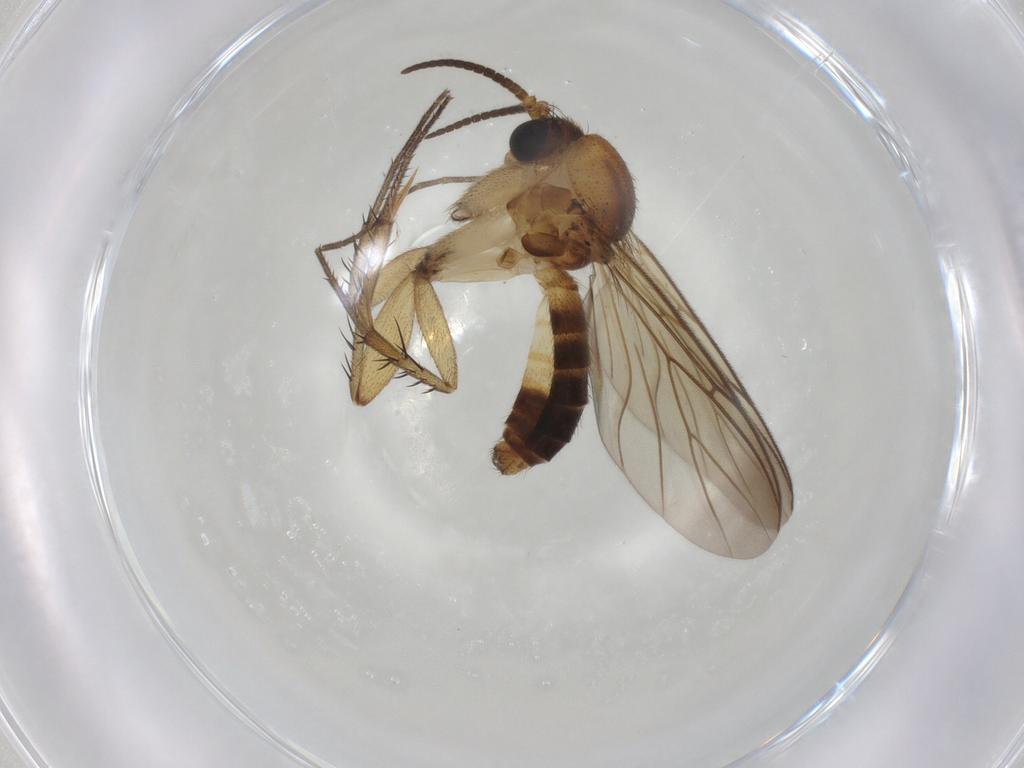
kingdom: Animalia
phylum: Arthropoda
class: Insecta
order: Diptera
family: Mycetophilidae
